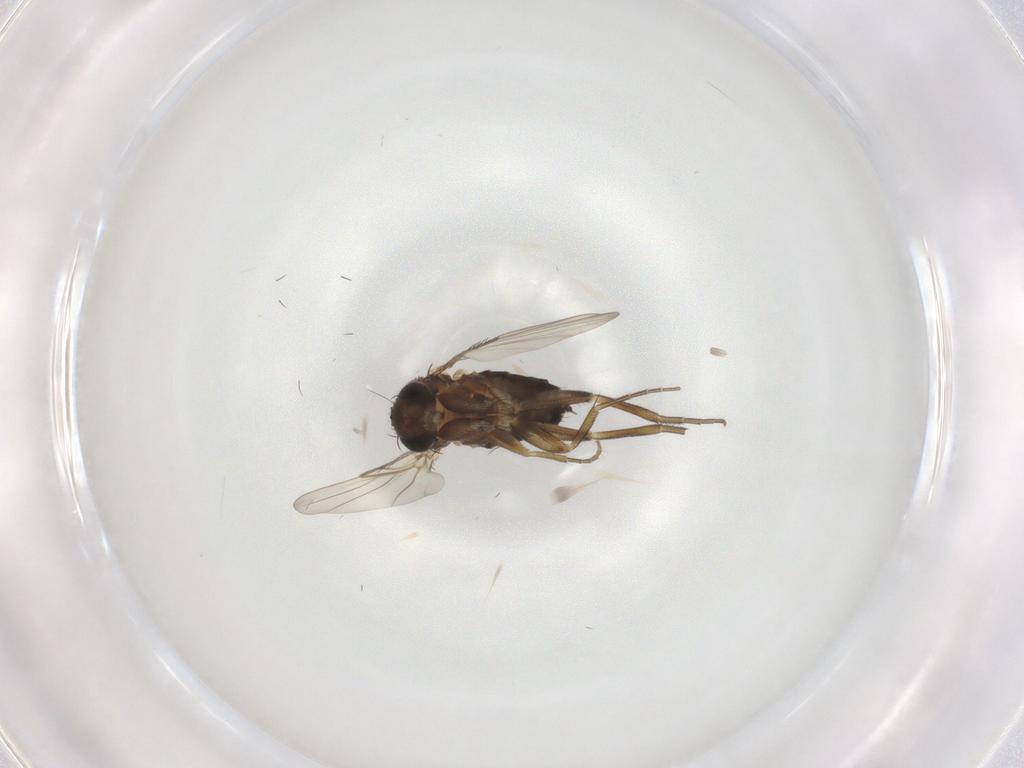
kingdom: Animalia
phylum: Arthropoda
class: Insecta
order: Diptera
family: Phoridae
